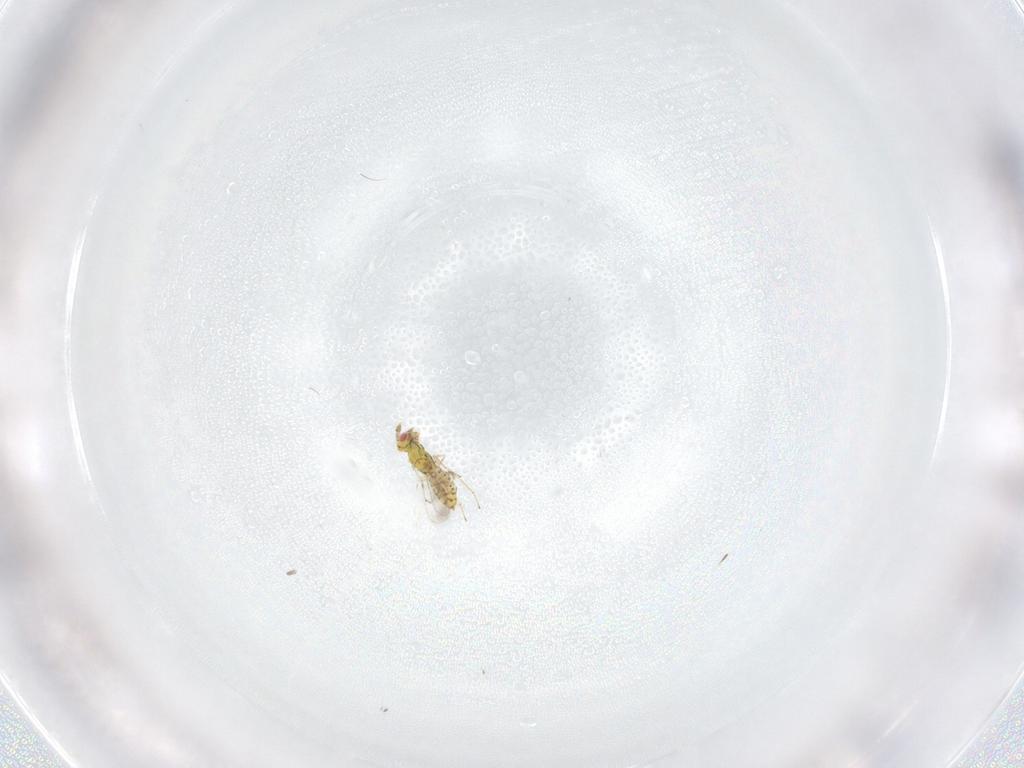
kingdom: Animalia
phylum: Arthropoda
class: Insecta
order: Hymenoptera
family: Eulophidae
